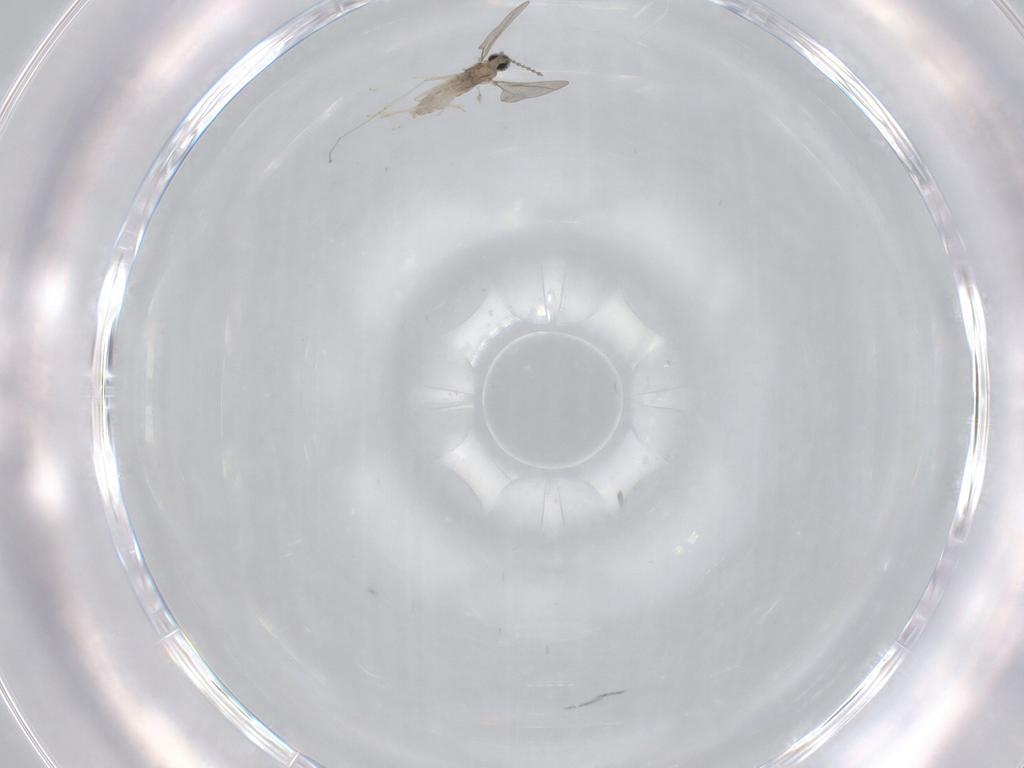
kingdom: Animalia
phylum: Arthropoda
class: Insecta
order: Diptera
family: Cecidomyiidae
